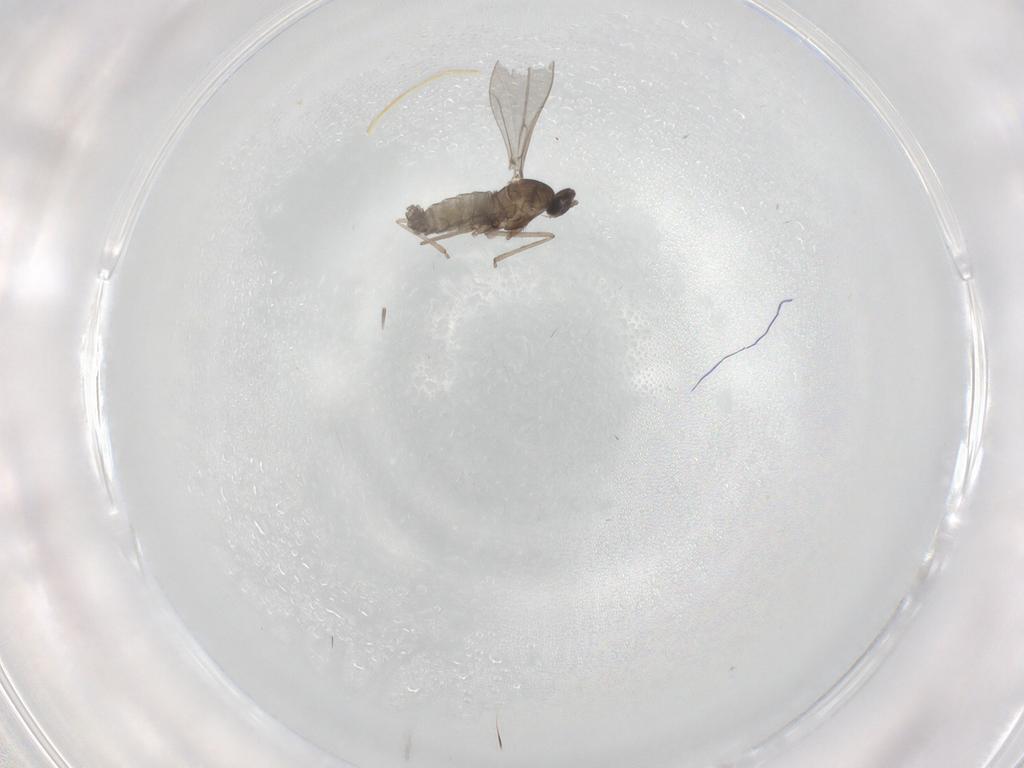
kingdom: Animalia
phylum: Arthropoda
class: Insecta
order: Diptera
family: Cecidomyiidae
